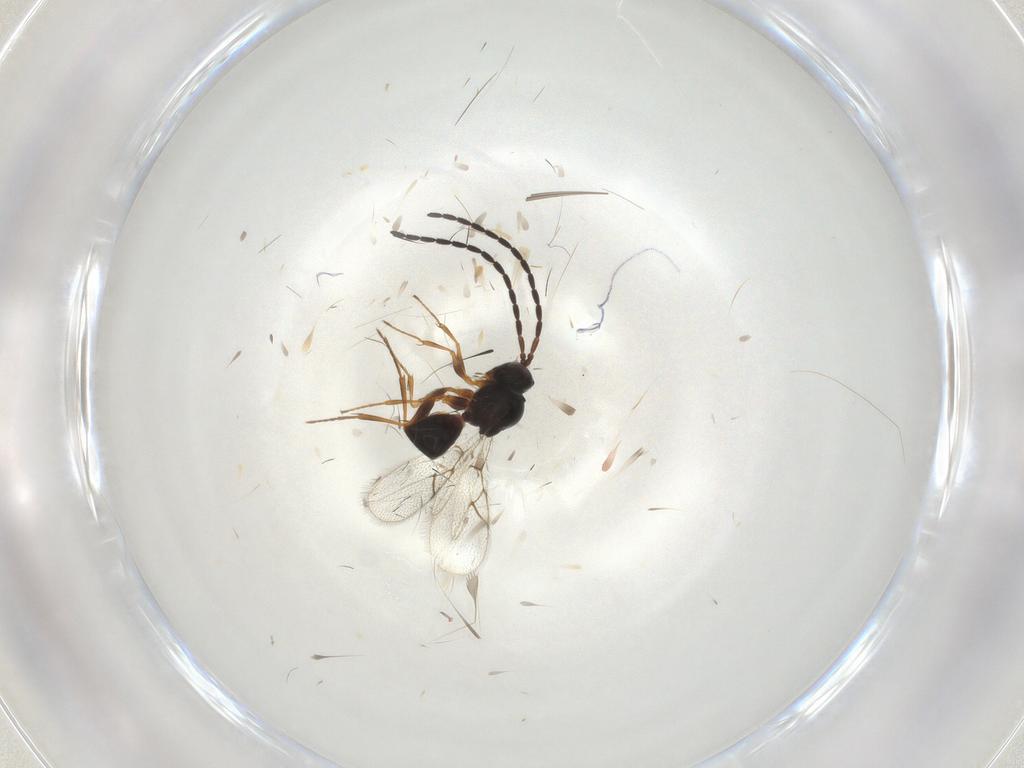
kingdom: Animalia
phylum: Arthropoda
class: Insecta
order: Hymenoptera
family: Figitidae
